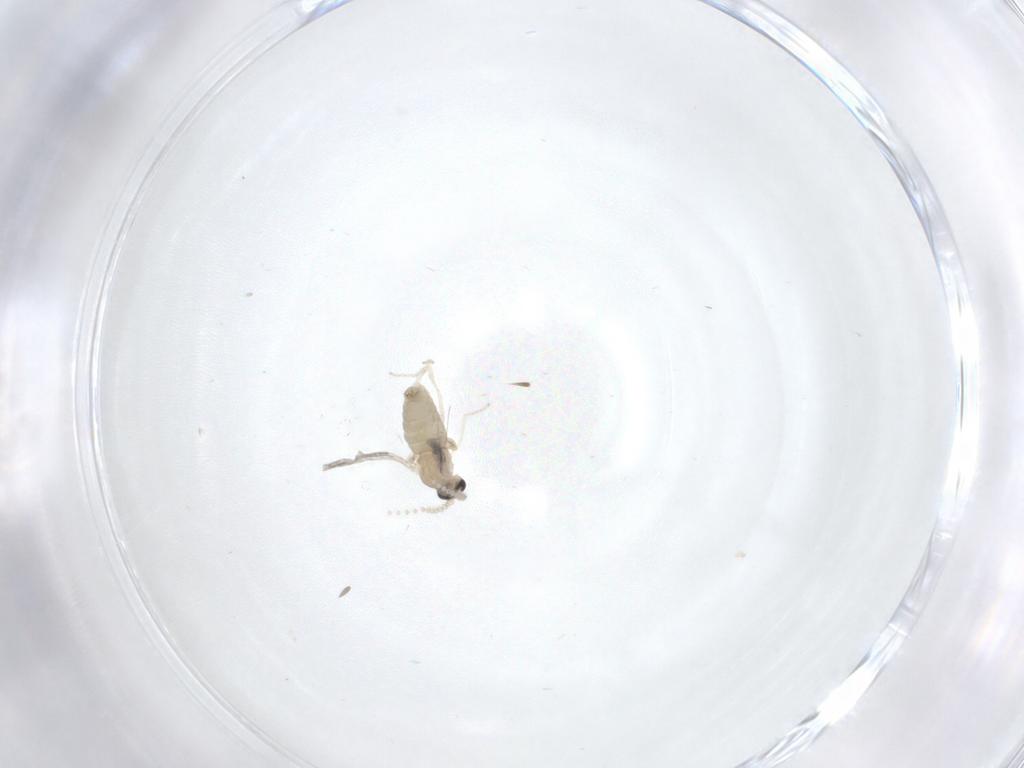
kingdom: Animalia
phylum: Arthropoda
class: Insecta
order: Diptera
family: Cecidomyiidae
